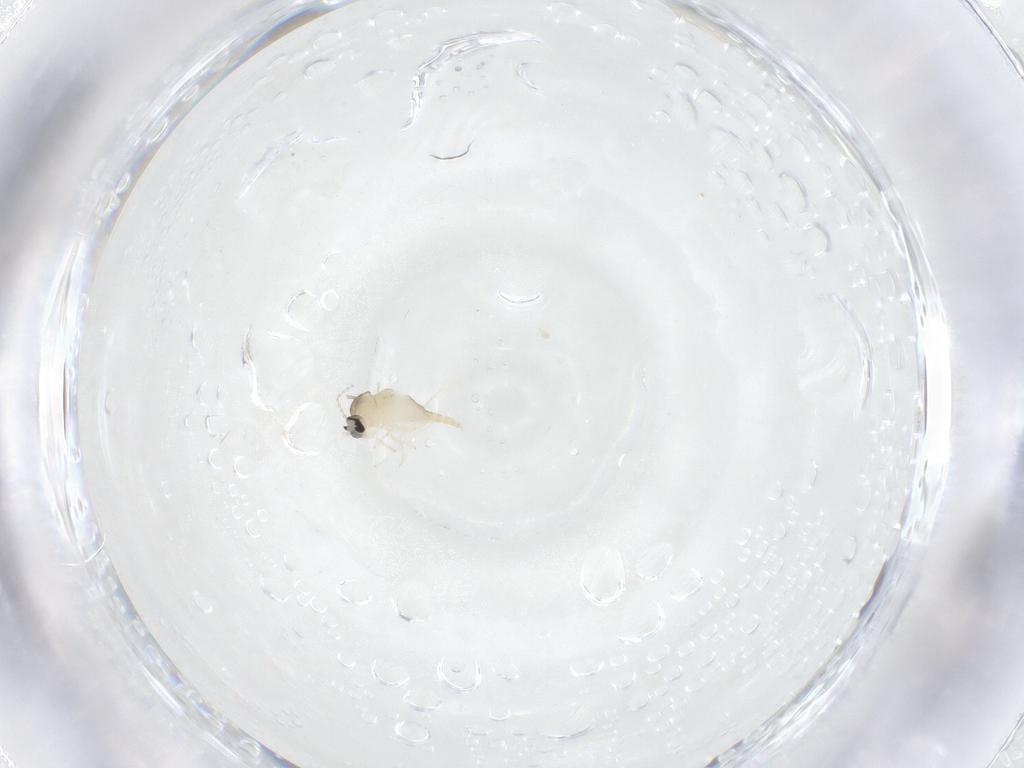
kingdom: Animalia
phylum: Arthropoda
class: Insecta
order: Diptera
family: Cecidomyiidae
